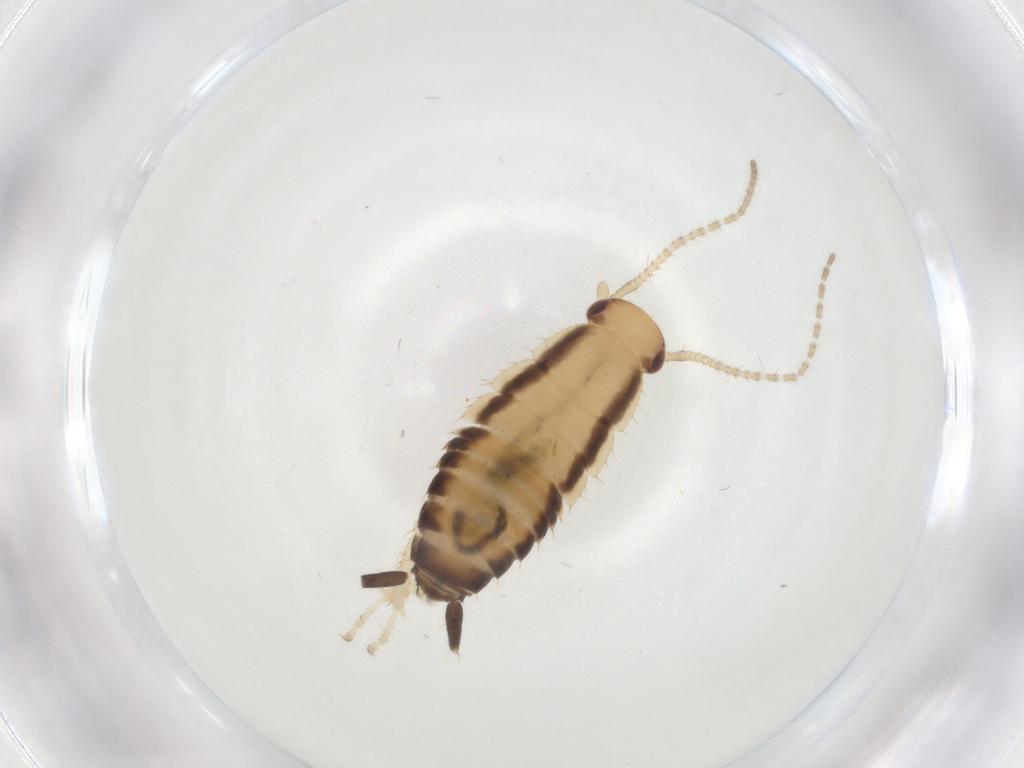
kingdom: Animalia
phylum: Arthropoda
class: Insecta
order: Blattodea
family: Ectobiidae
